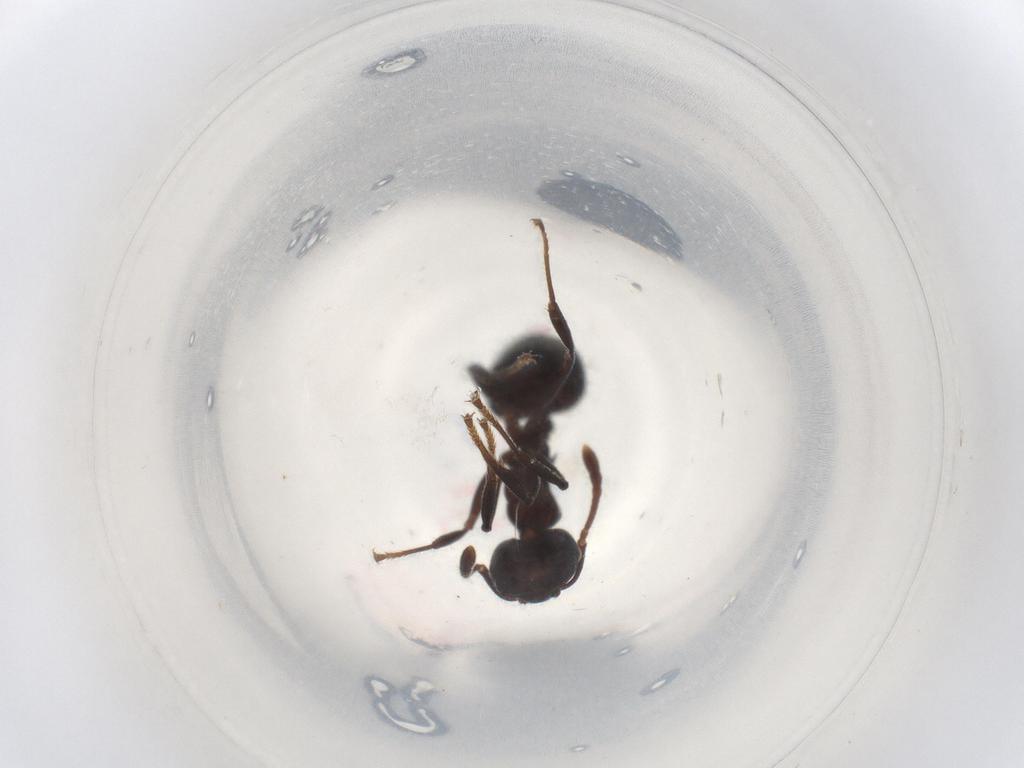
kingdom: Animalia
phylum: Arthropoda
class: Insecta
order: Hymenoptera
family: Formicidae
